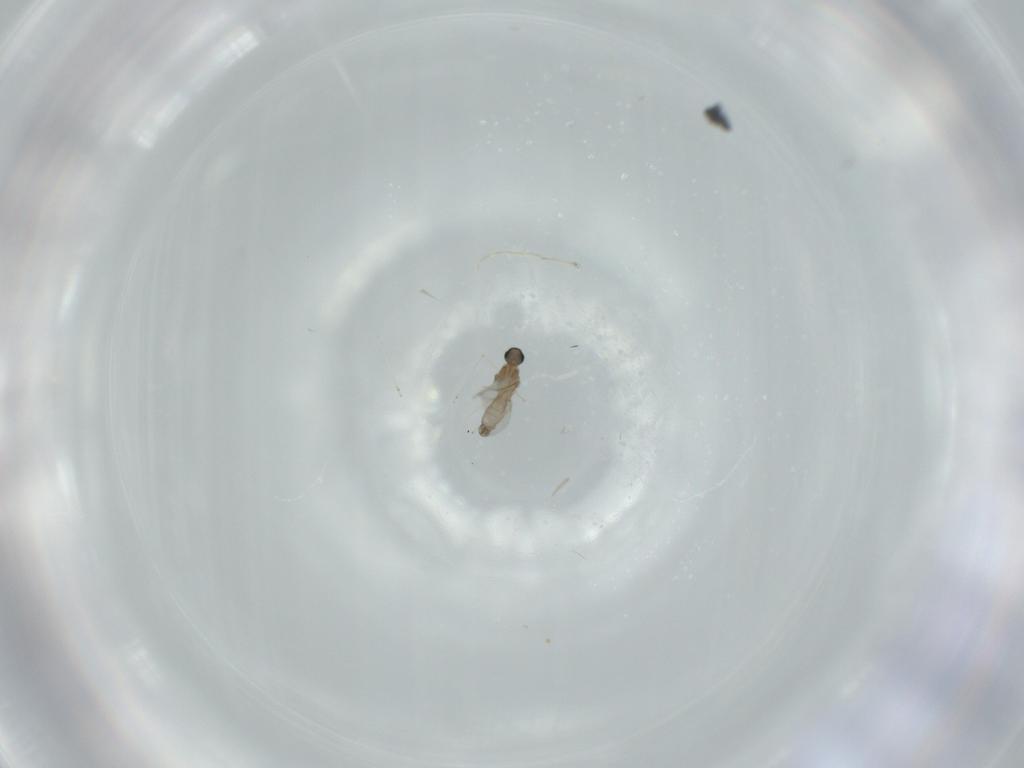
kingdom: Animalia
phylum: Arthropoda
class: Insecta
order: Diptera
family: Cecidomyiidae
